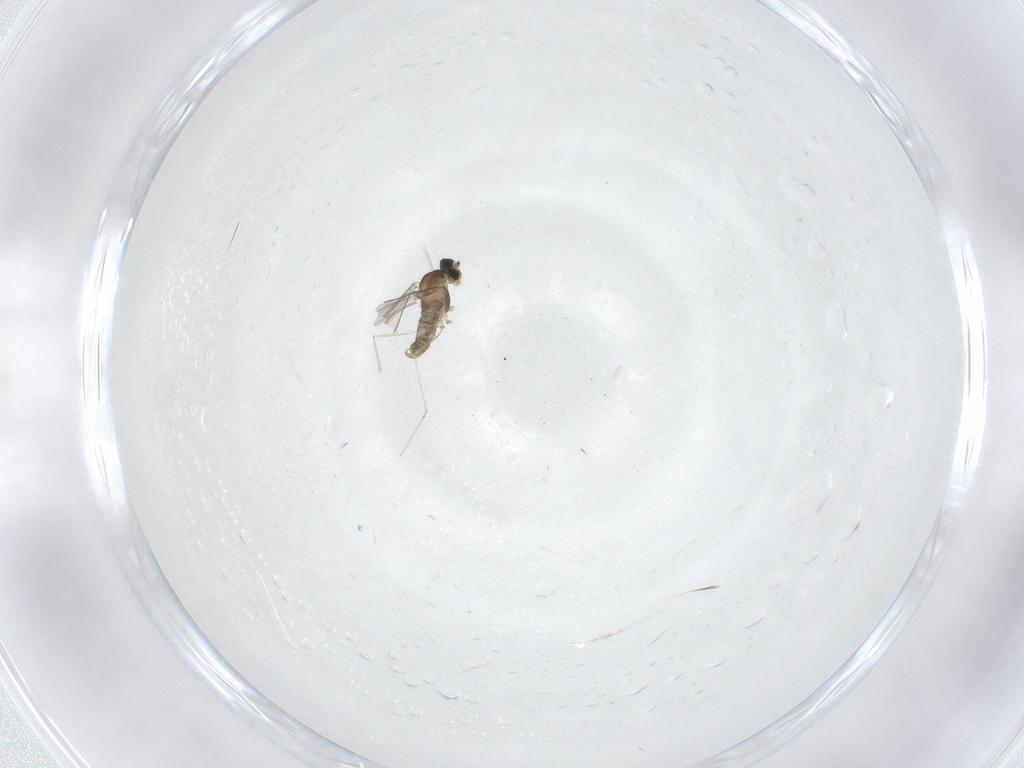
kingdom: Animalia
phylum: Arthropoda
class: Insecta
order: Diptera
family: Cecidomyiidae
